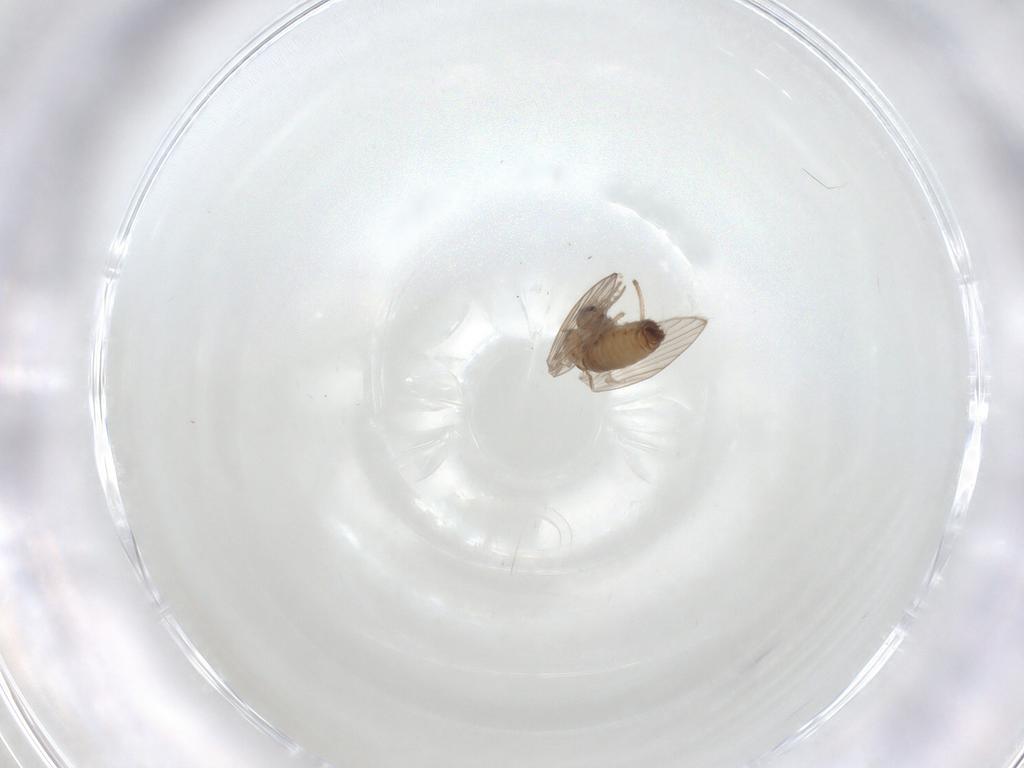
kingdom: Animalia
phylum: Arthropoda
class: Insecta
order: Diptera
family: Psychodidae
